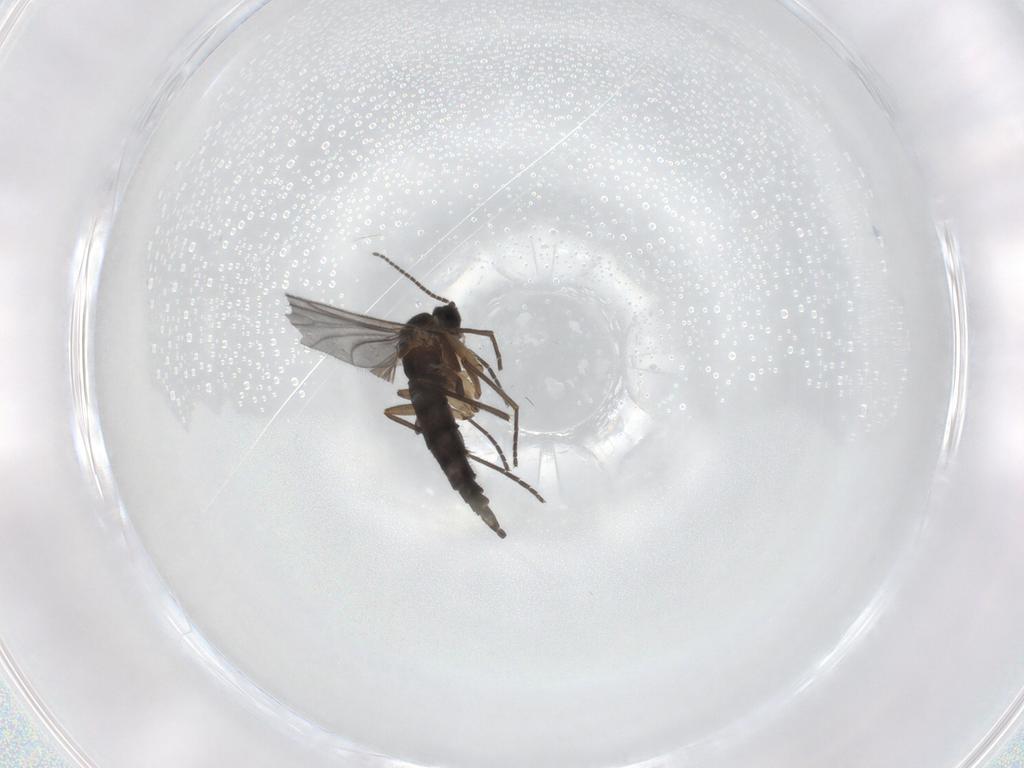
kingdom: Animalia
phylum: Arthropoda
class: Insecta
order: Diptera
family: Sciaridae
